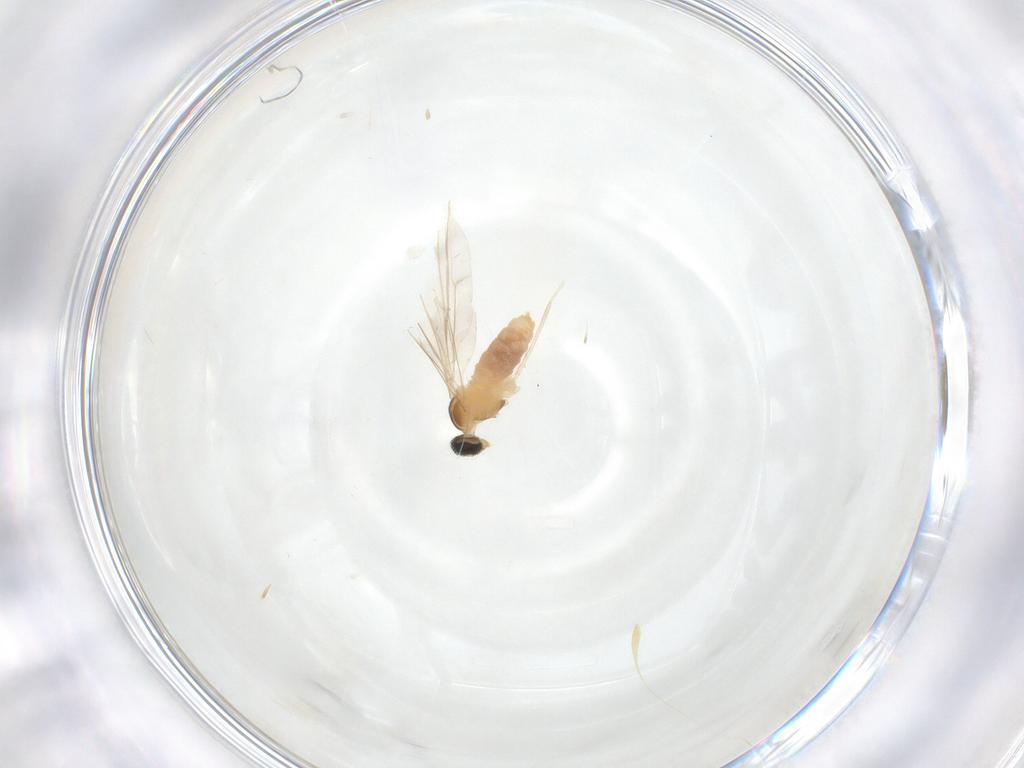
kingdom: Animalia
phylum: Arthropoda
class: Insecta
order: Diptera
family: Cecidomyiidae
